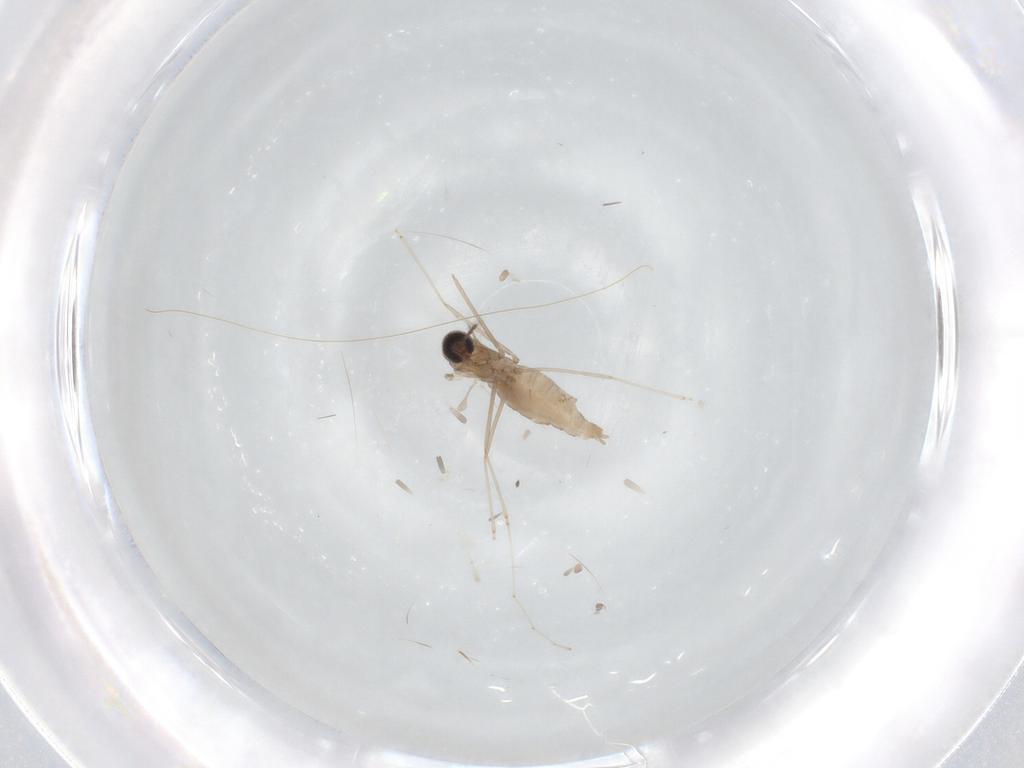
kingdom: Animalia
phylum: Arthropoda
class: Insecta
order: Diptera
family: Cecidomyiidae
